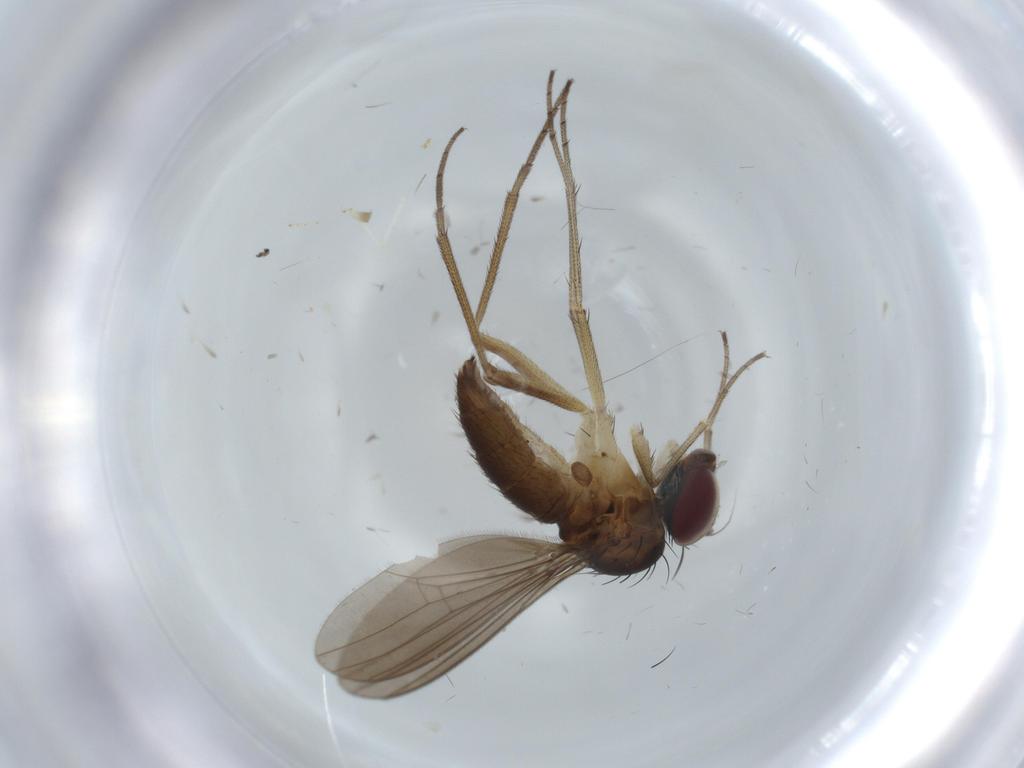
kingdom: Animalia
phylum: Arthropoda
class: Insecta
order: Diptera
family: Dolichopodidae
